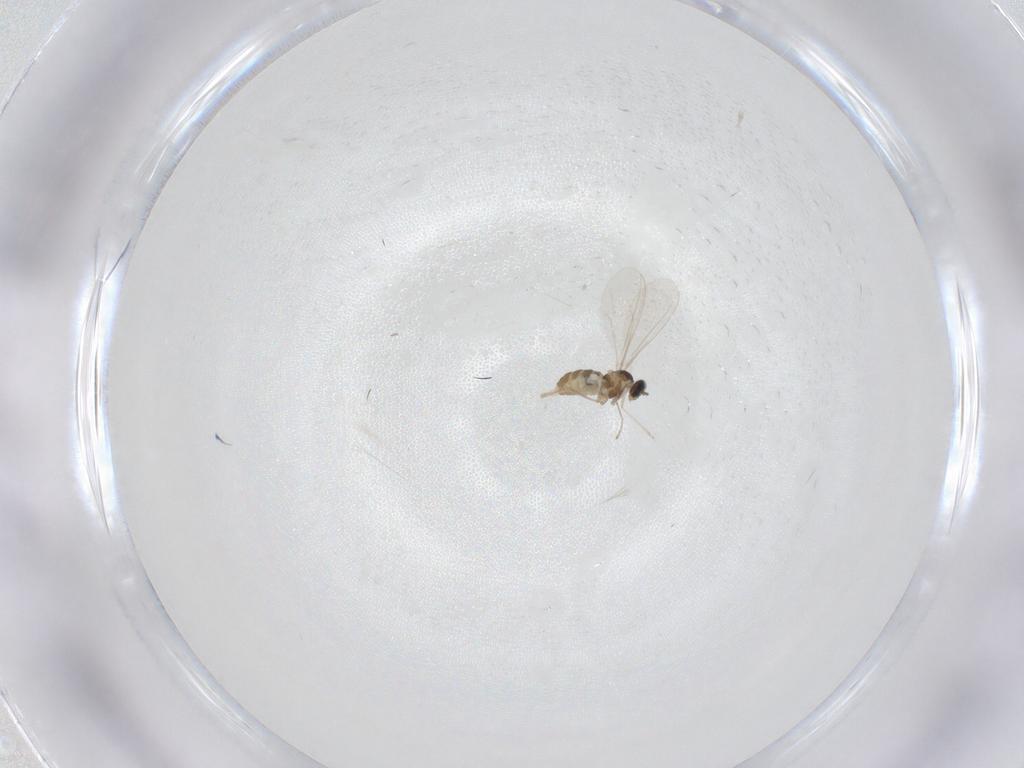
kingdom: Animalia
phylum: Arthropoda
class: Insecta
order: Diptera
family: Cecidomyiidae
